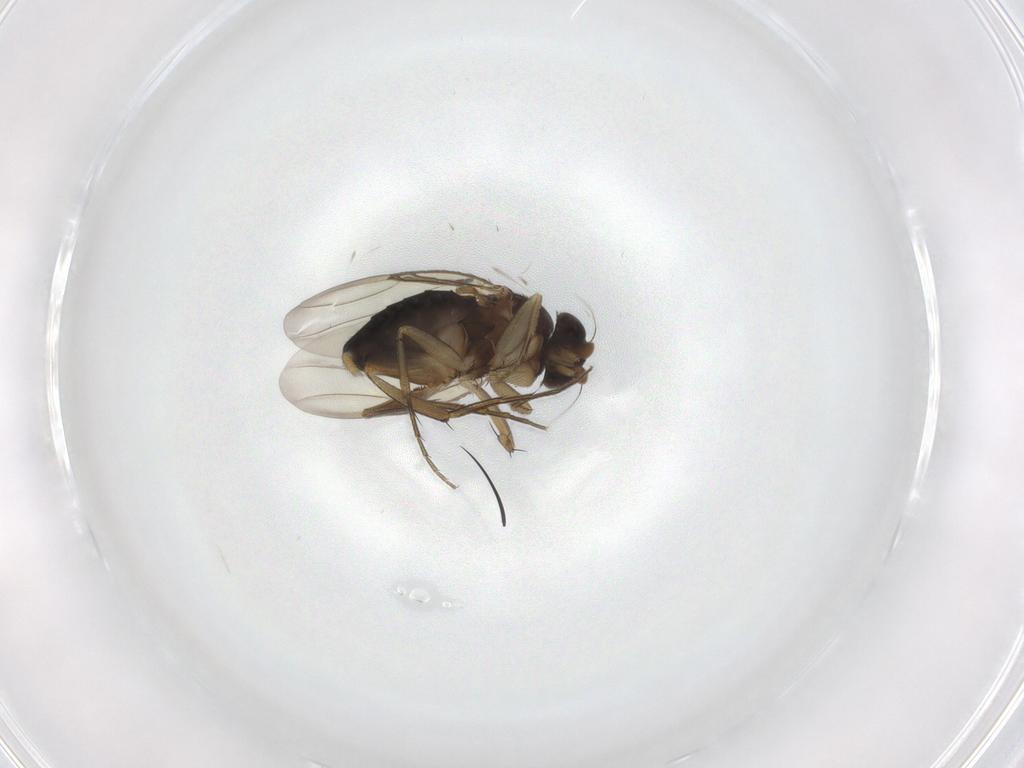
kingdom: Animalia
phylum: Arthropoda
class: Insecta
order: Diptera
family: Phoridae
